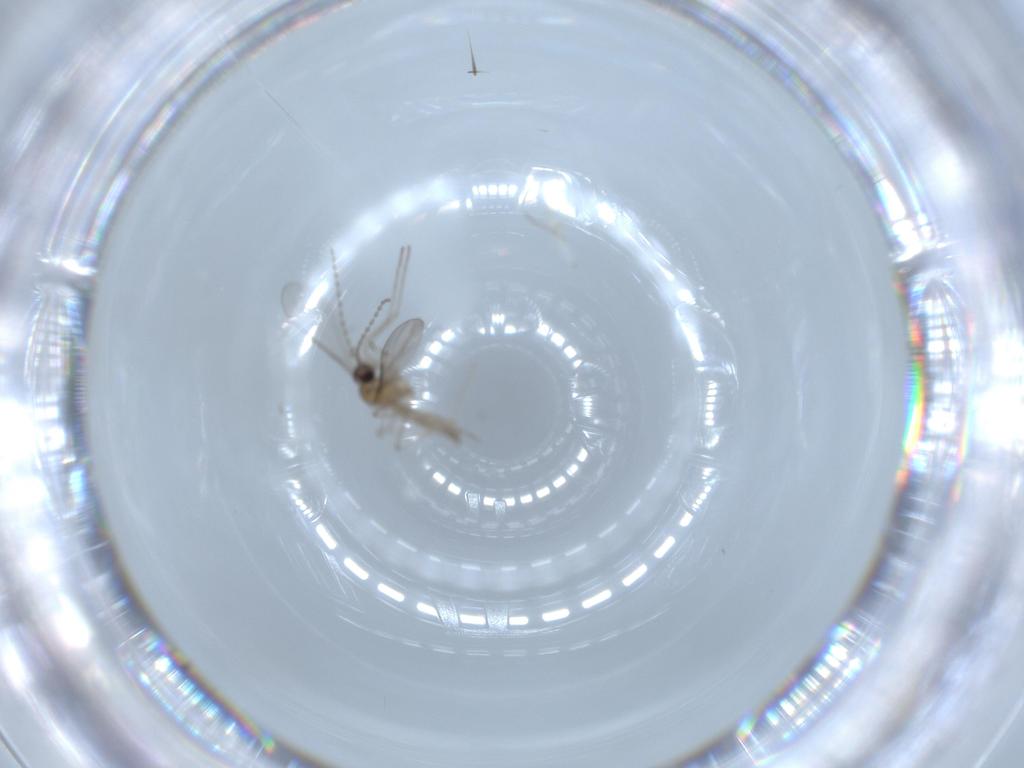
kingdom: Animalia
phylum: Arthropoda
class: Insecta
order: Diptera
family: Cecidomyiidae
